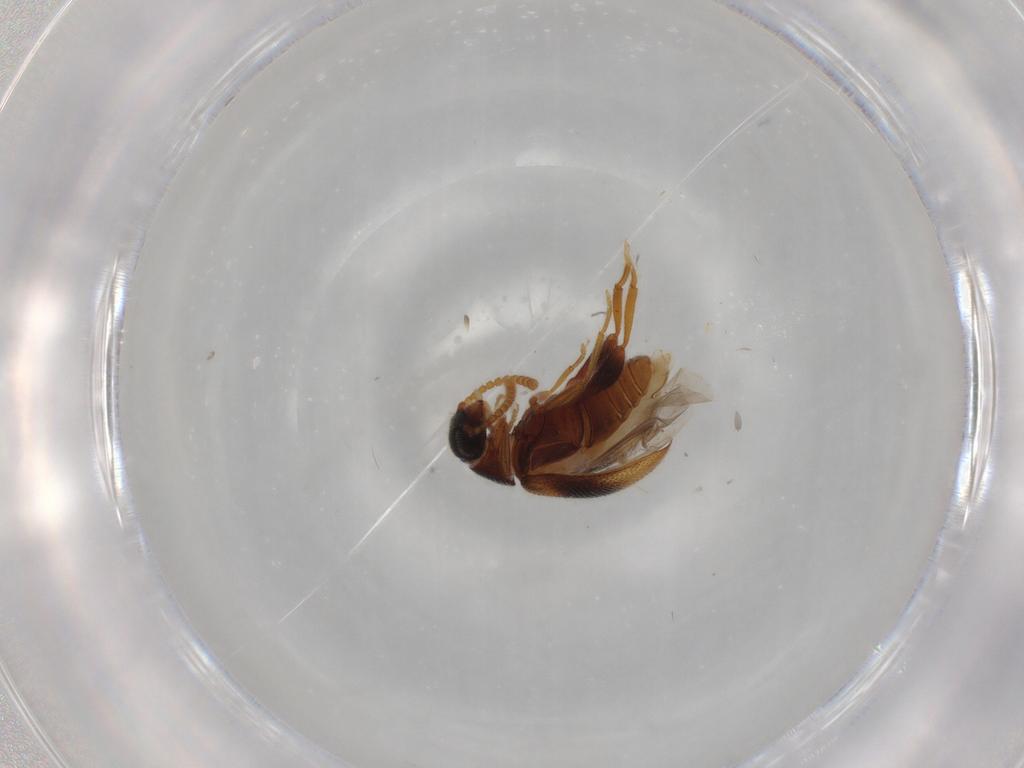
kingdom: Animalia
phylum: Arthropoda
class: Insecta
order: Coleoptera
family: Aderidae
